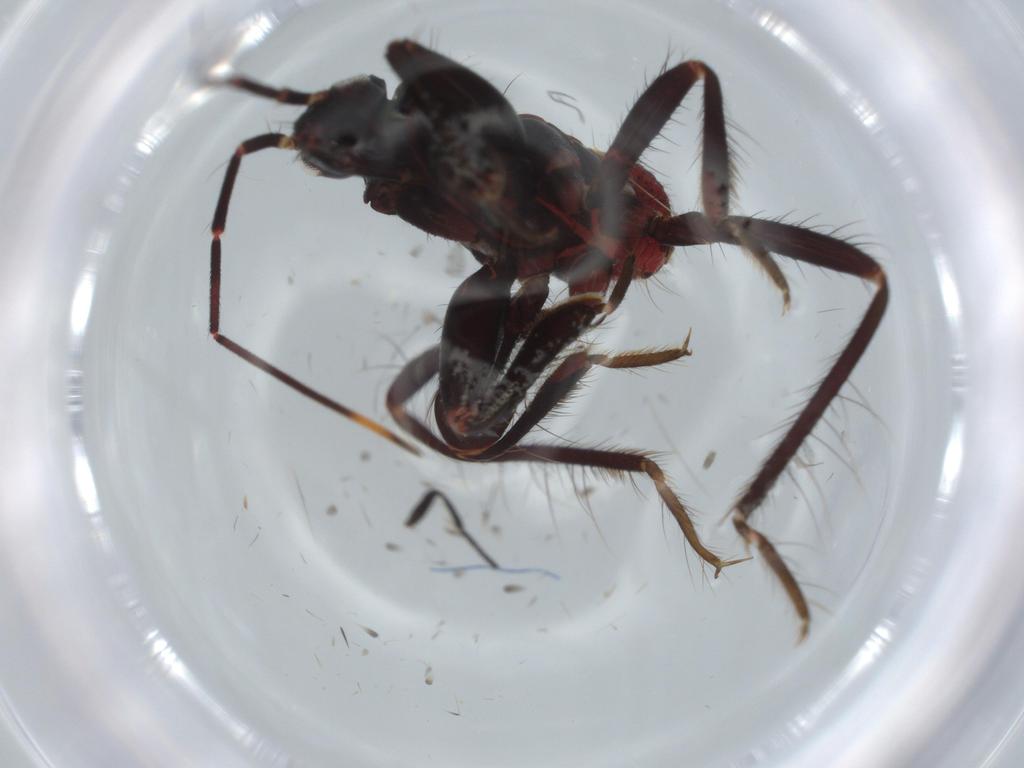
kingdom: Animalia
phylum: Arthropoda
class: Insecta
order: Hemiptera
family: Reduviidae
